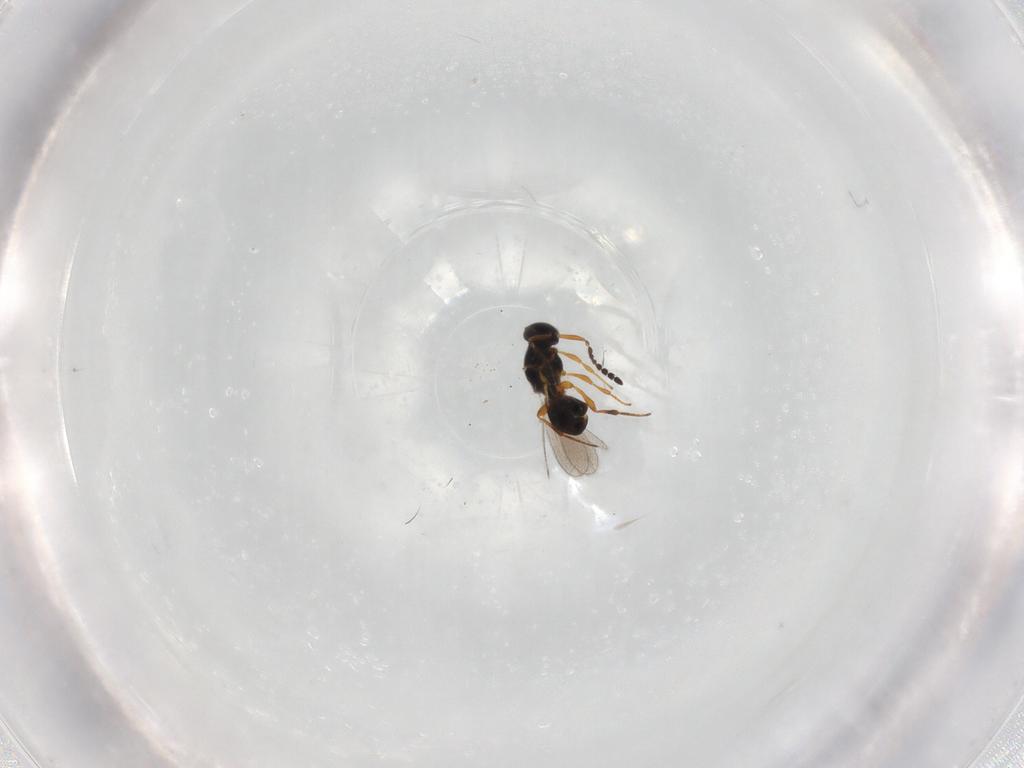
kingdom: Animalia
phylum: Arthropoda
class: Insecta
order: Hymenoptera
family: Platygastridae
